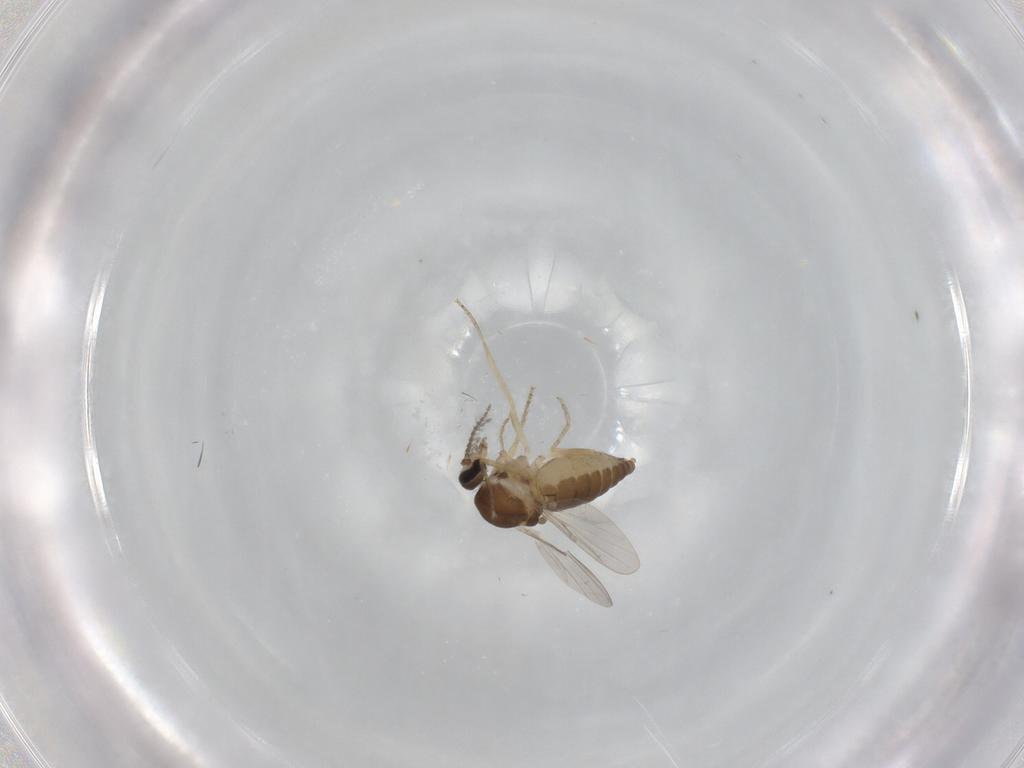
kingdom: Animalia
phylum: Arthropoda
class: Insecta
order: Diptera
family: Ceratopogonidae
